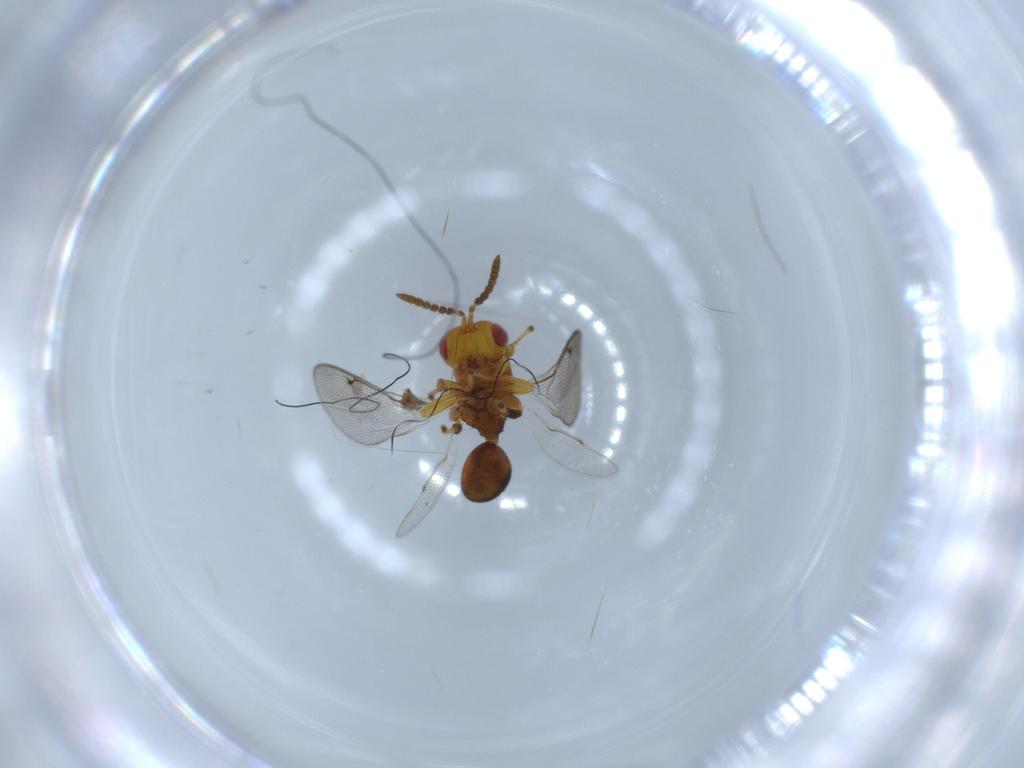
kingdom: Animalia
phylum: Arthropoda
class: Insecta
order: Hymenoptera
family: Eurytomidae
